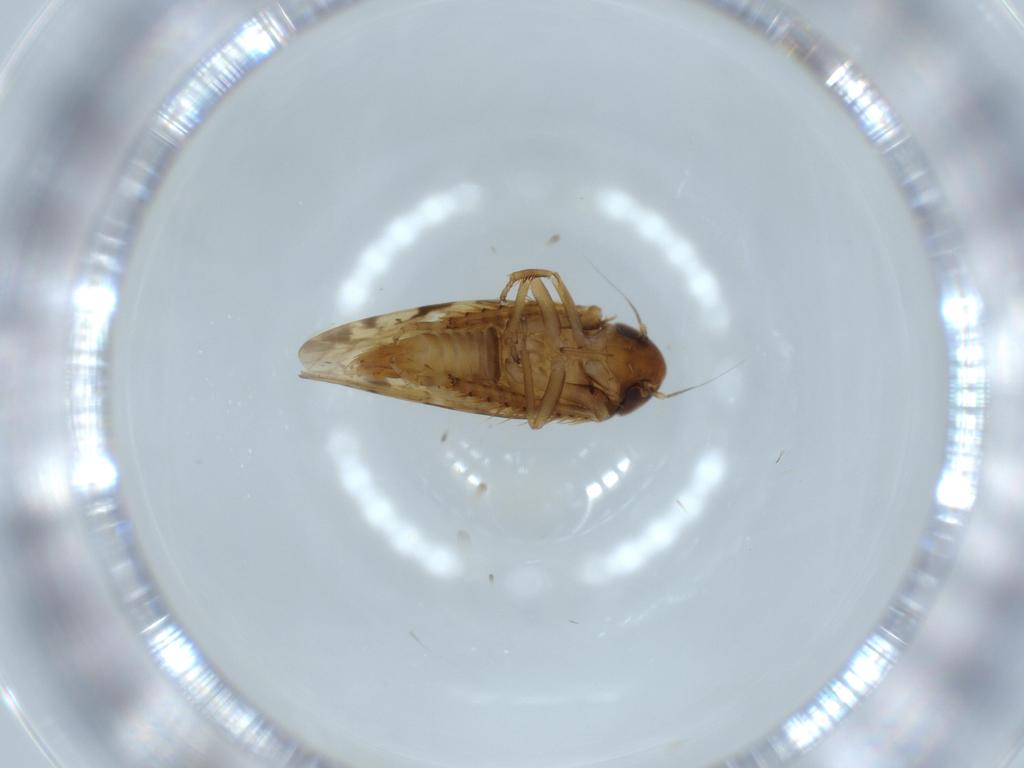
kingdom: Animalia
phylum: Arthropoda
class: Insecta
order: Hemiptera
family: Cicadellidae
